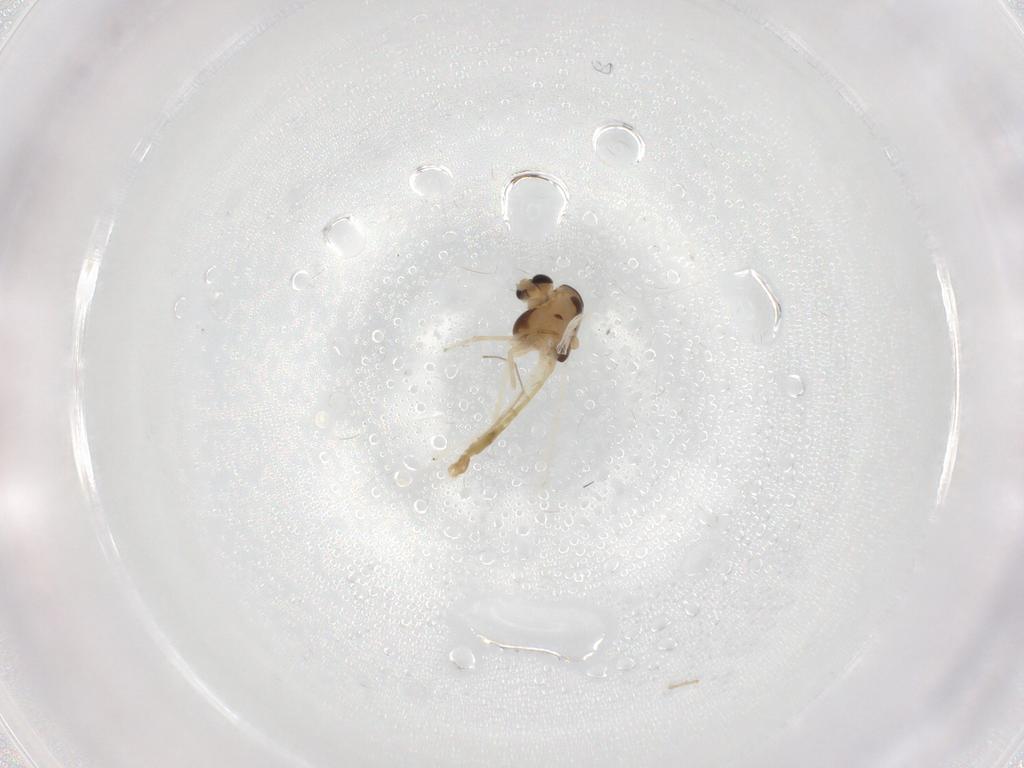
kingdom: Animalia
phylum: Arthropoda
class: Insecta
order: Diptera
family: Chironomidae
